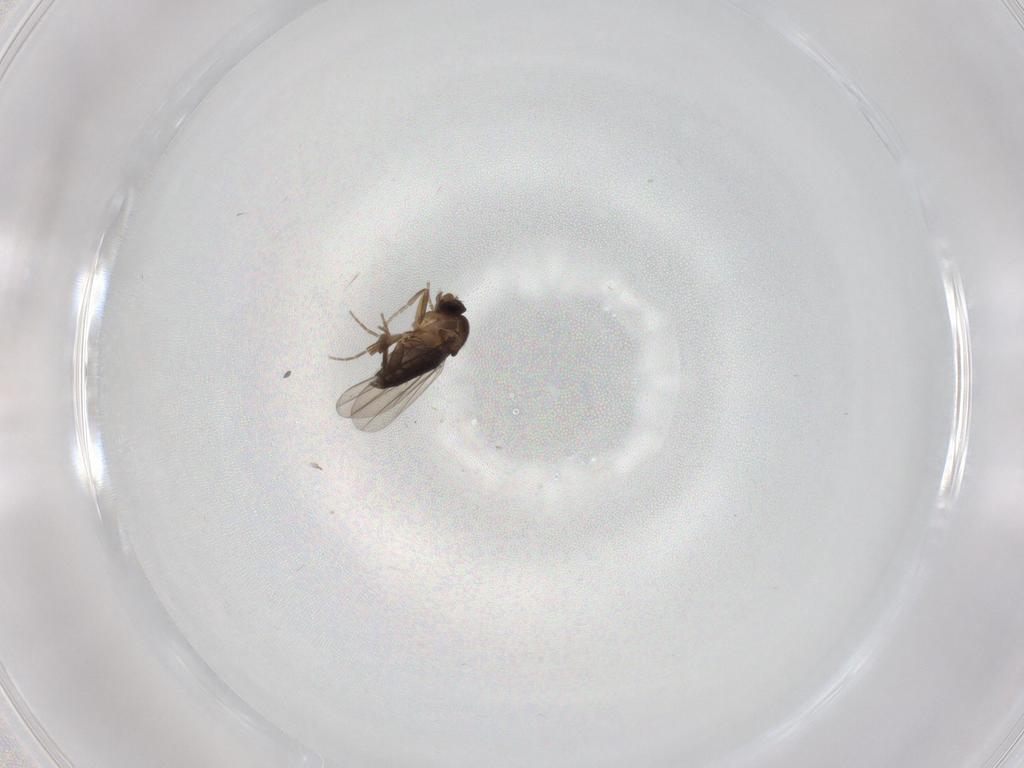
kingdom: Animalia
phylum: Arthropoda
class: Insecta
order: Diptera
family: Phoridae
